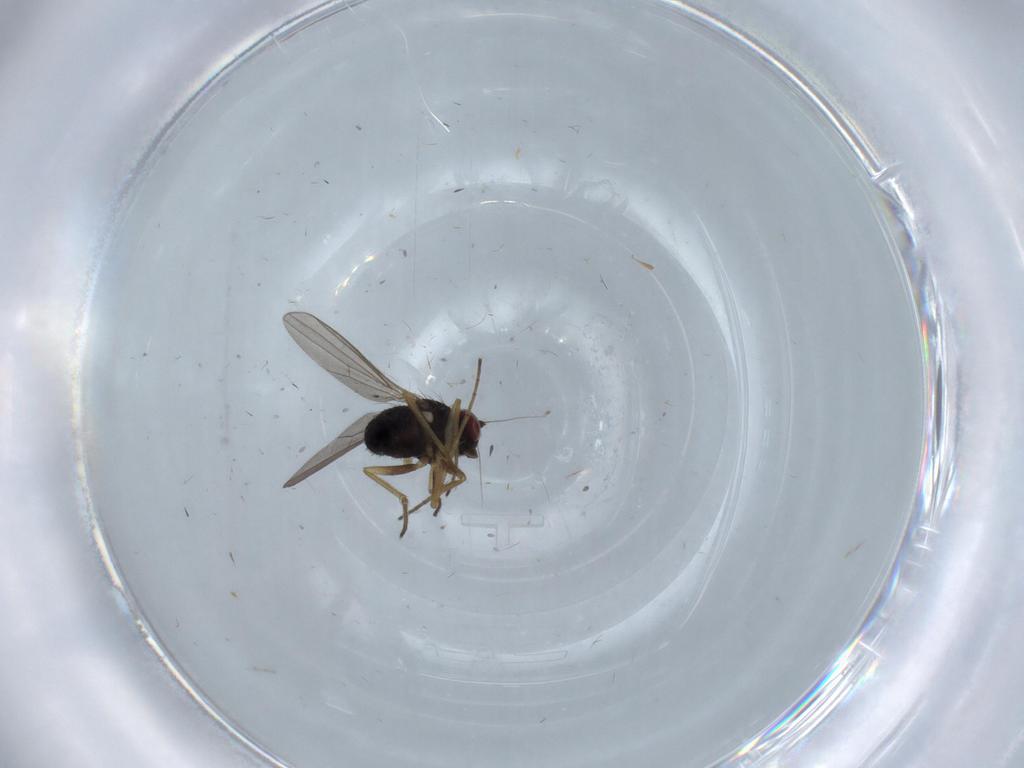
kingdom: Animalia
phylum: Arthropoda
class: Insecta
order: Diptera
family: Dolichopodidae
